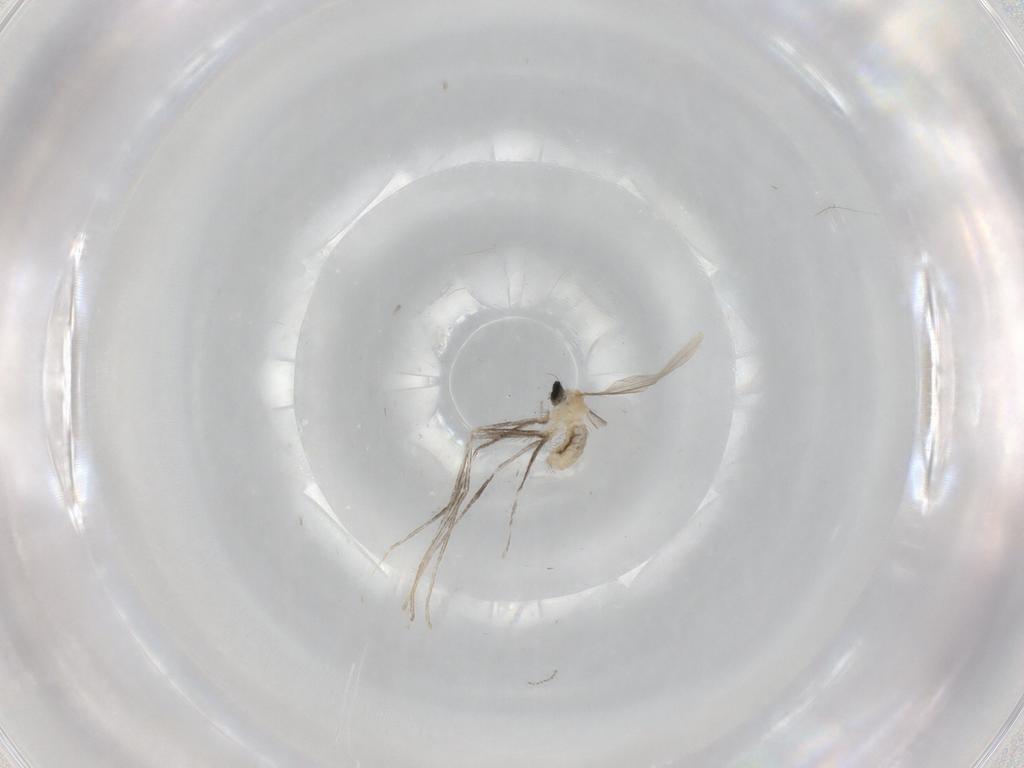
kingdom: Animalia
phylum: Arthropoda
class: Insecta
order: Diptera
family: Cecidomyiidae
